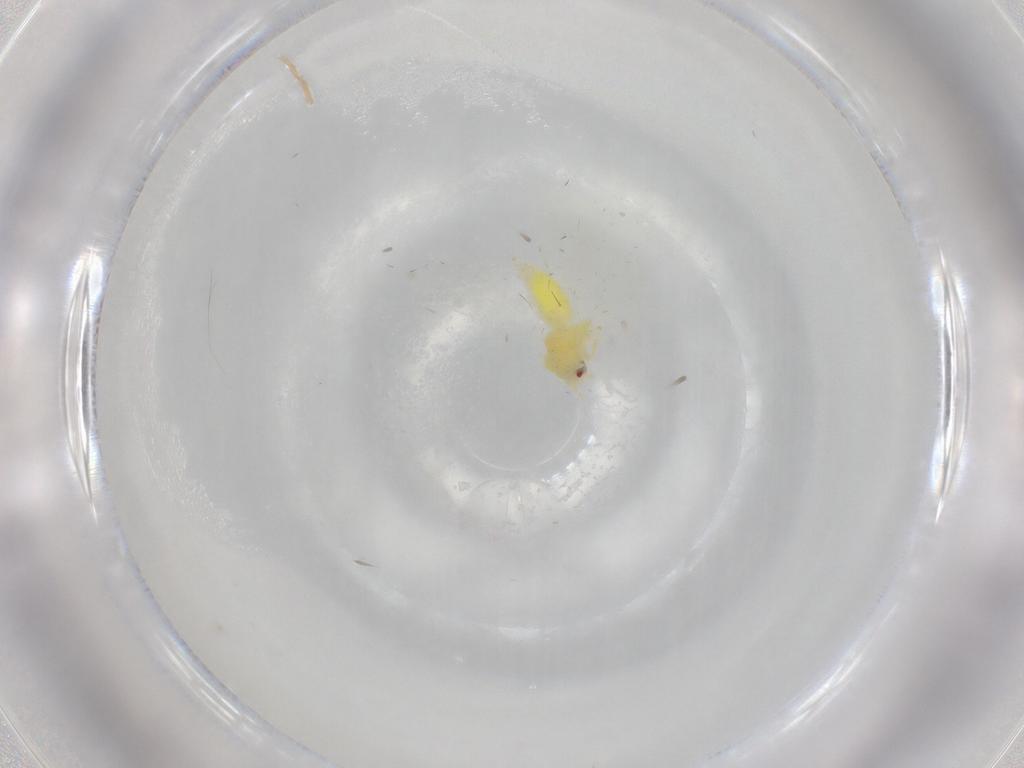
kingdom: Animalia
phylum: Arthropoda
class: Insecta
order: Hemiptera
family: Aleyrodidae
